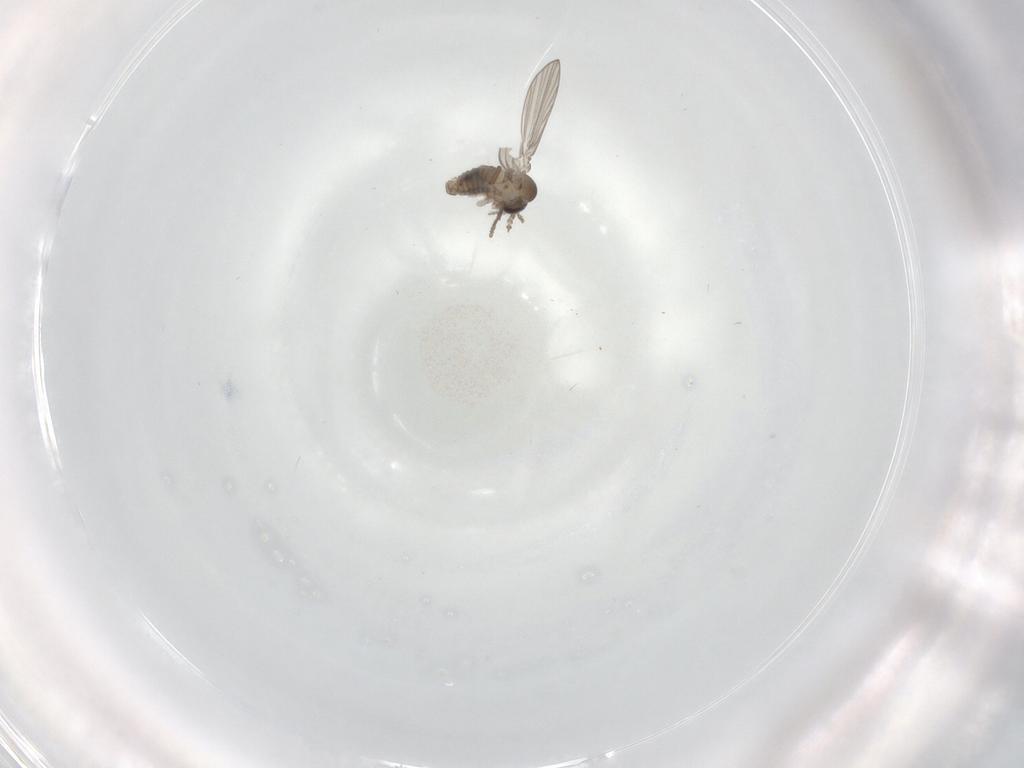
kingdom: Animalia
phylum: Arthropoda
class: Insecta
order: Diptera
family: Psychodidae
